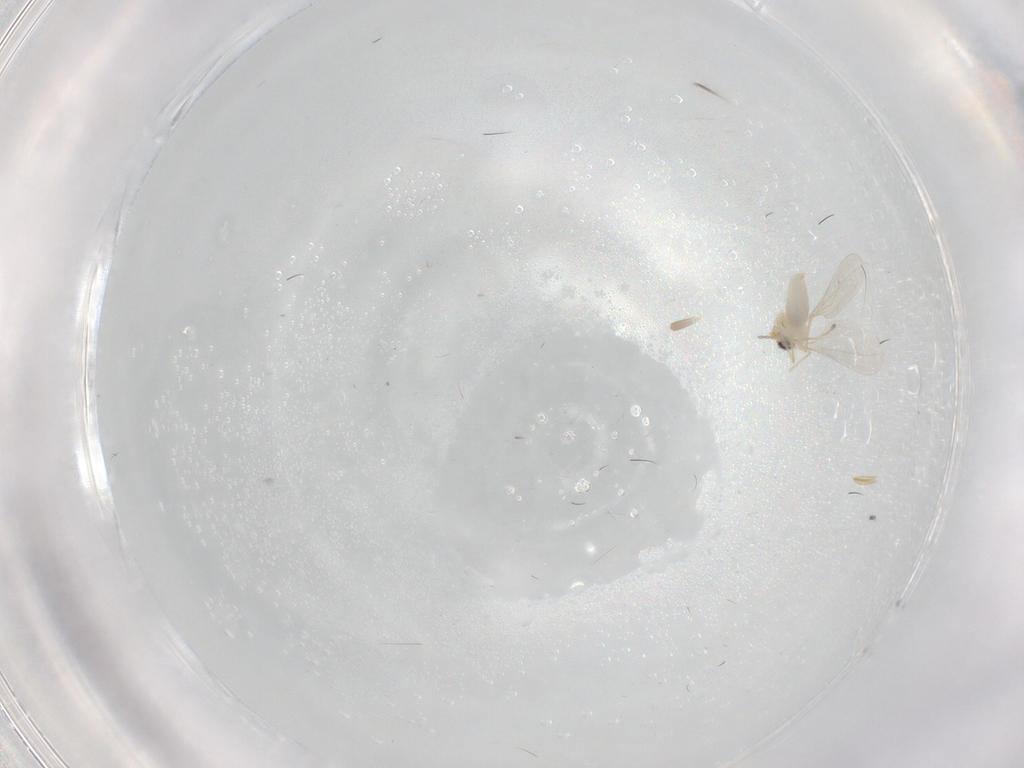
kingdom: Animalia
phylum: Arthropoda
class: Insecta
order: Diptera
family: Cecidomyiidae
